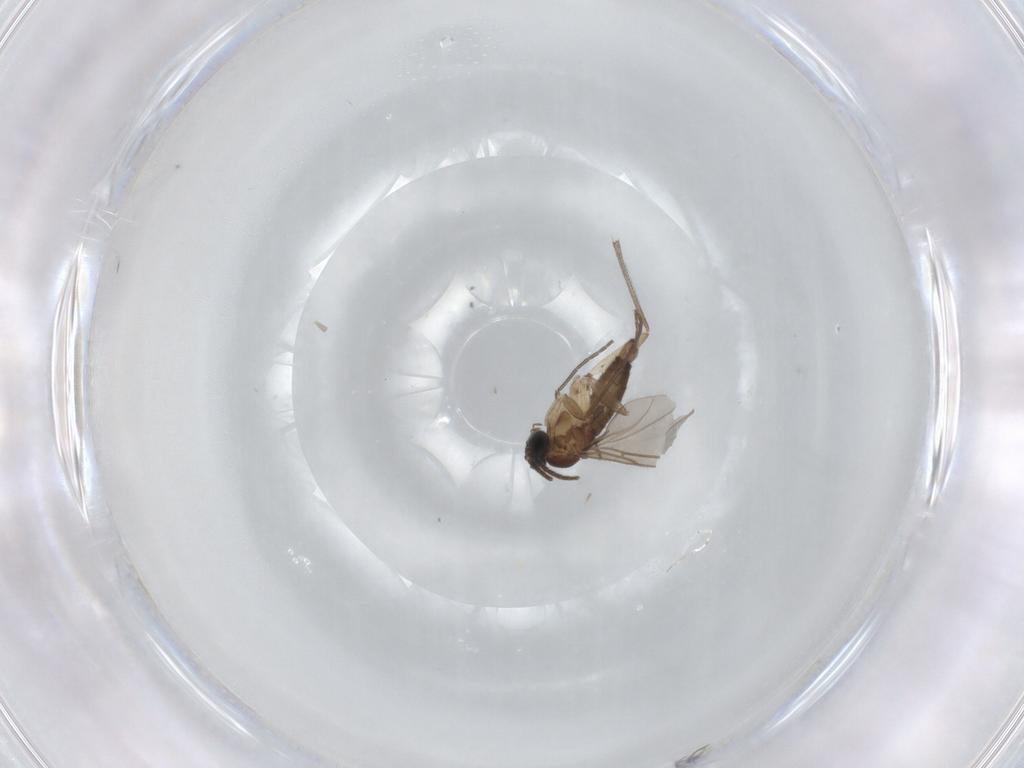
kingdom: Animalia
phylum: Arthropoda
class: Insecta
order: Diptera
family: Sciaridae
